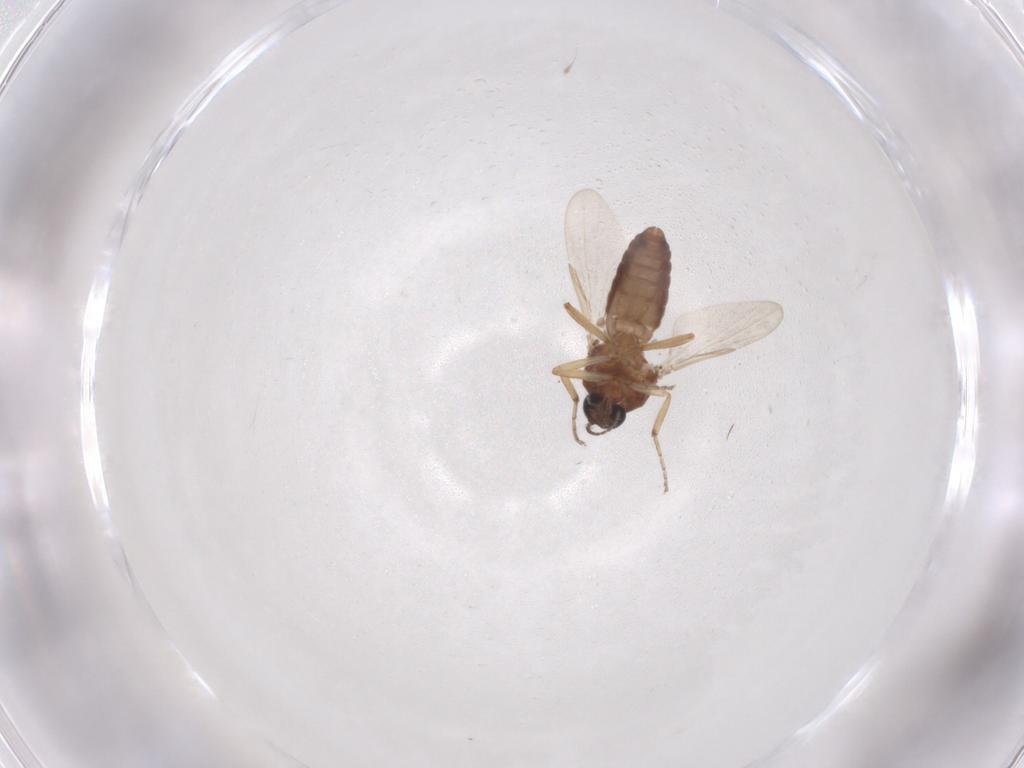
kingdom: Animalia
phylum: Arthropoda
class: Insecta
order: Diptera
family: Ceratopogonidae
